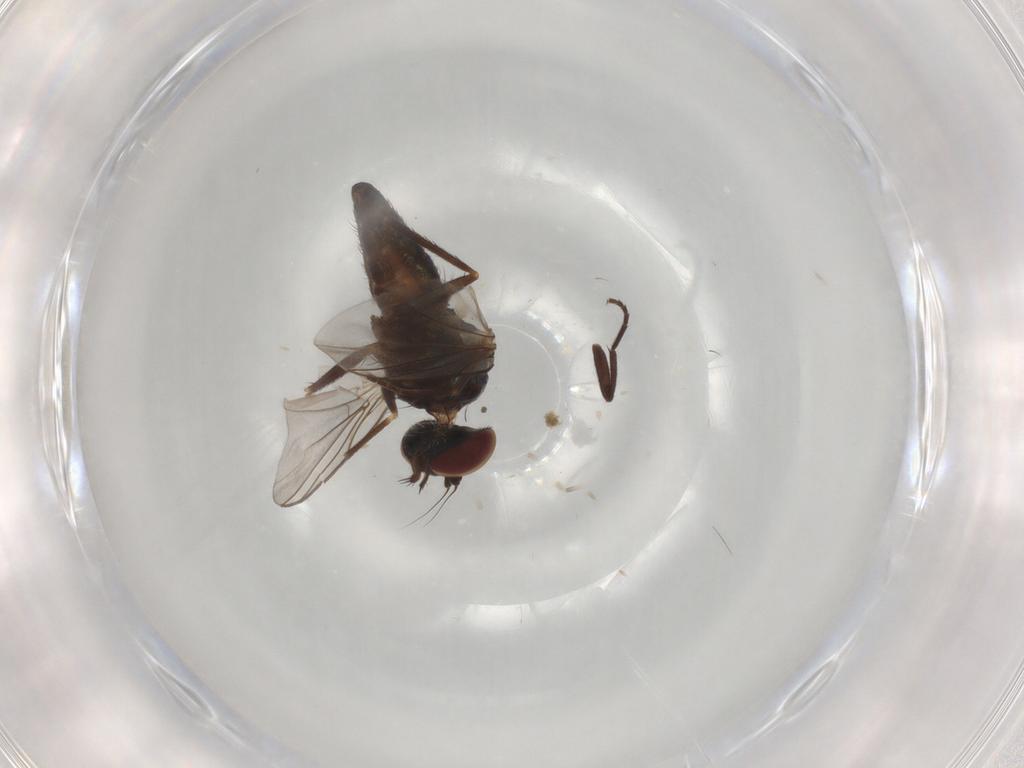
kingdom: Animalia
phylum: Arthropoda
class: Insecta
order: Diptera
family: Dolichopodidae
